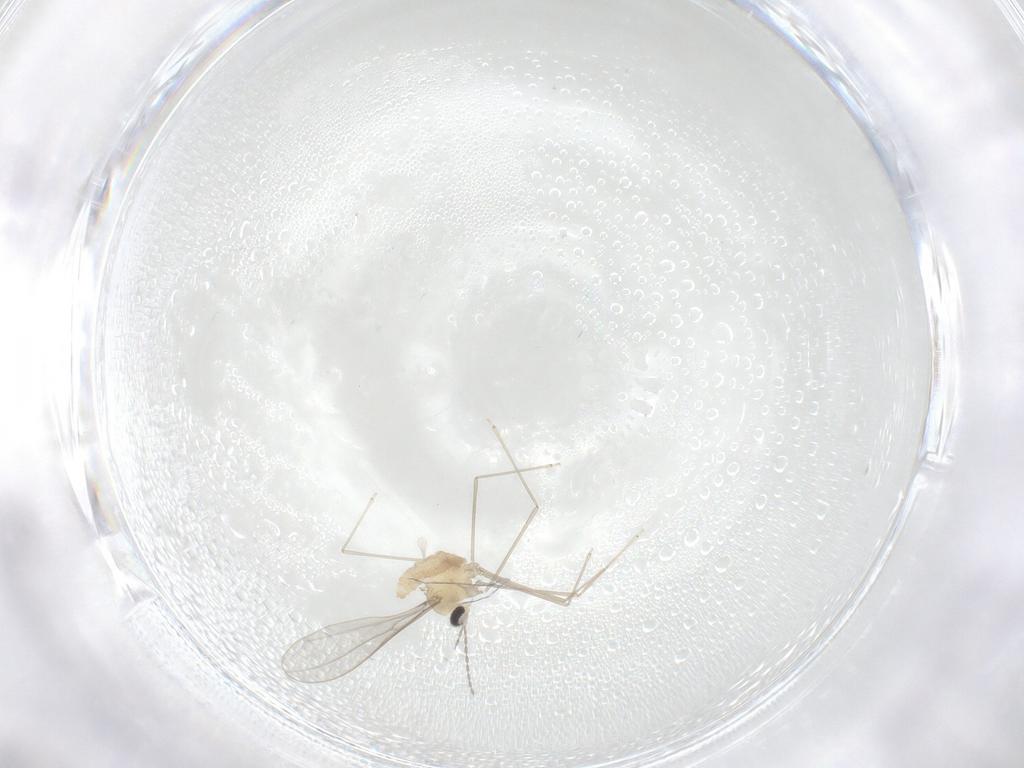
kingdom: Animalia
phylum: Arthropoda
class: Insecta
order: Diptera
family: Cecidomyiidae
